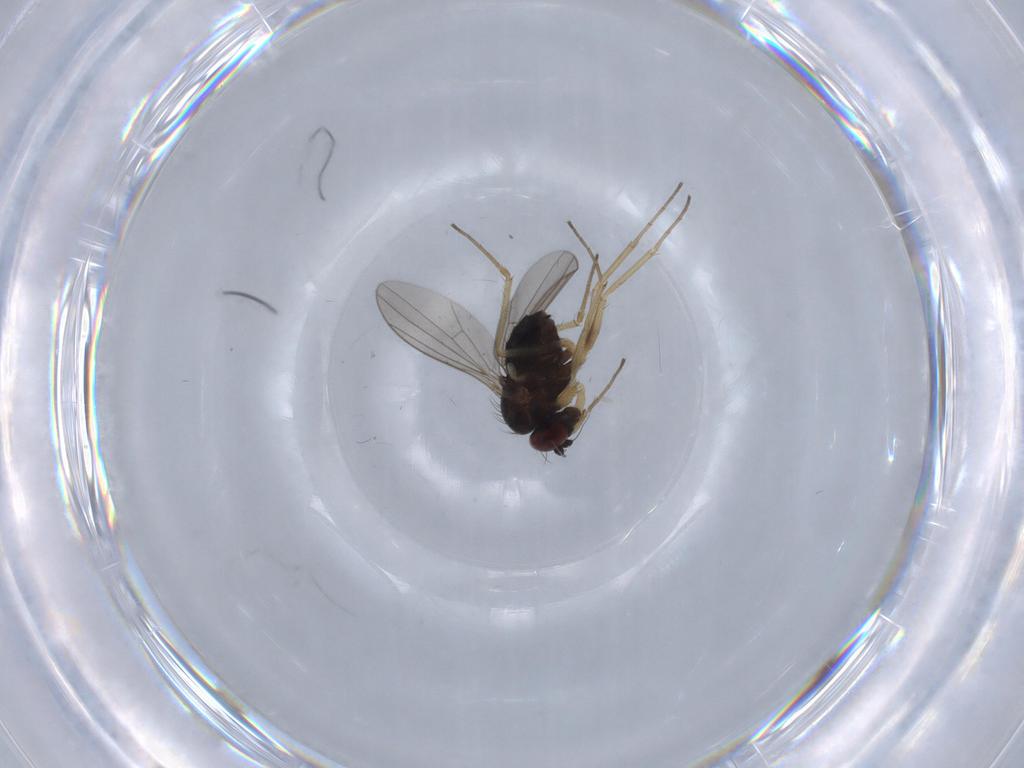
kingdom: Animalia
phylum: Arthropoda
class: Insecta
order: Diptera
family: Dolichopodidae
